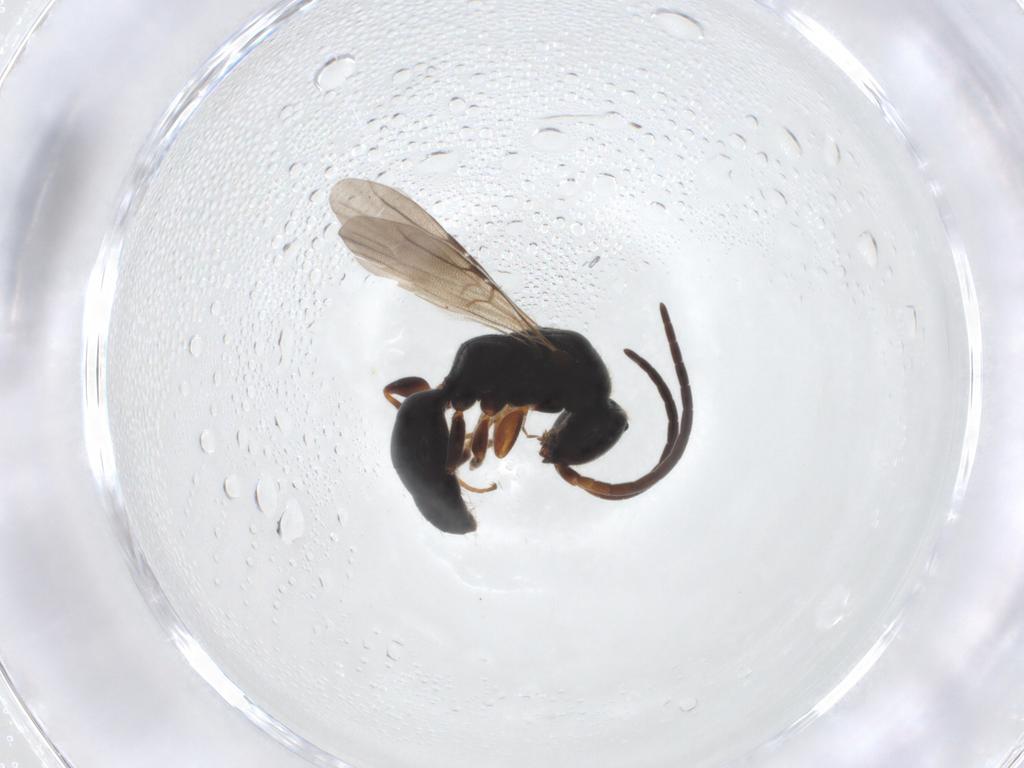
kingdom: Animalia
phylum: Arthropoda
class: Insecta
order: Hymenoptera
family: Bethylidae
